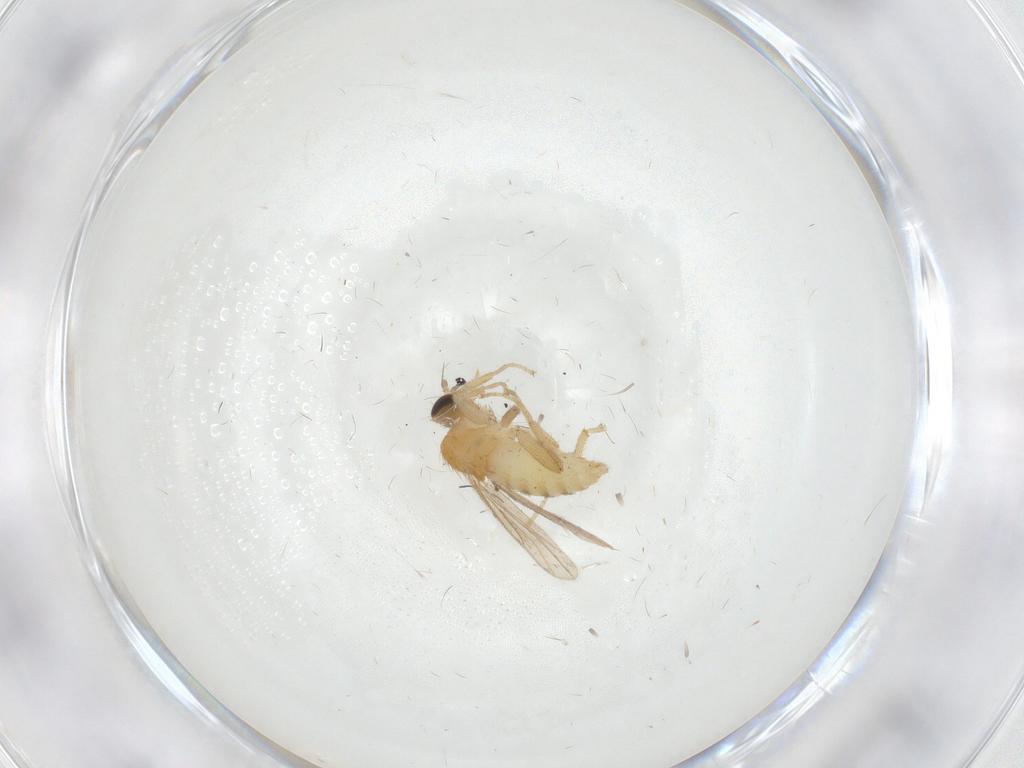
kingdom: Animalia
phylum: Arthropoda
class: Insecta
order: Diptera
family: Hybotidae
